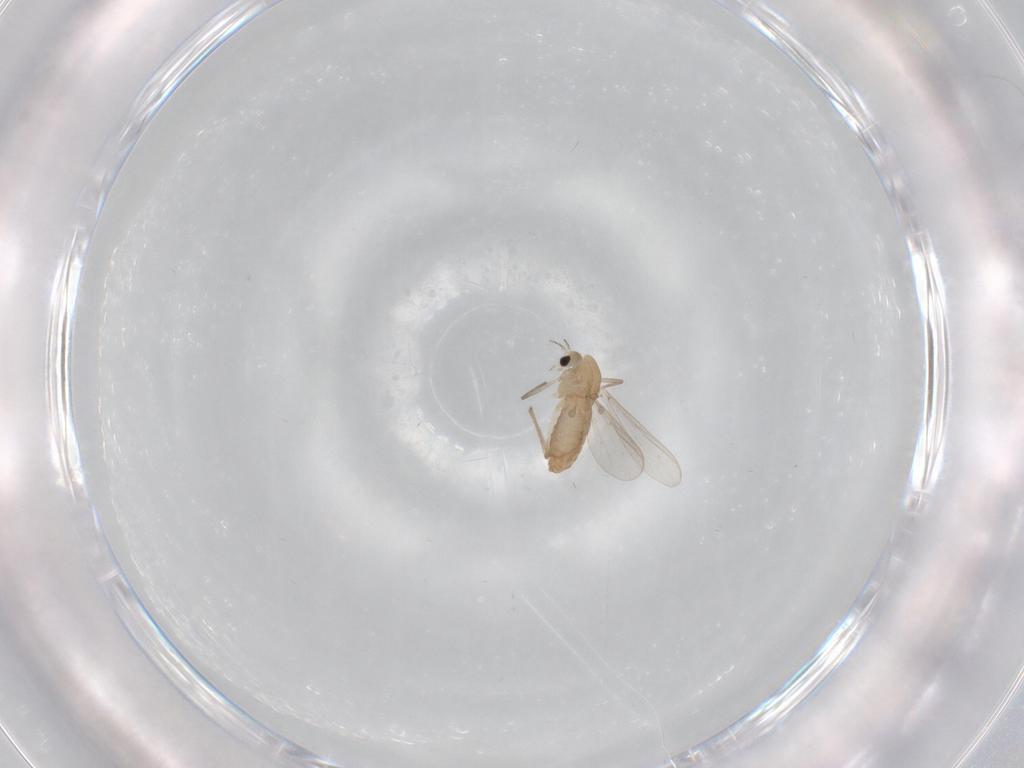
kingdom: Animalia
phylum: Arthropoda
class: Insecta
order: Diptera
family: Chironomidae
